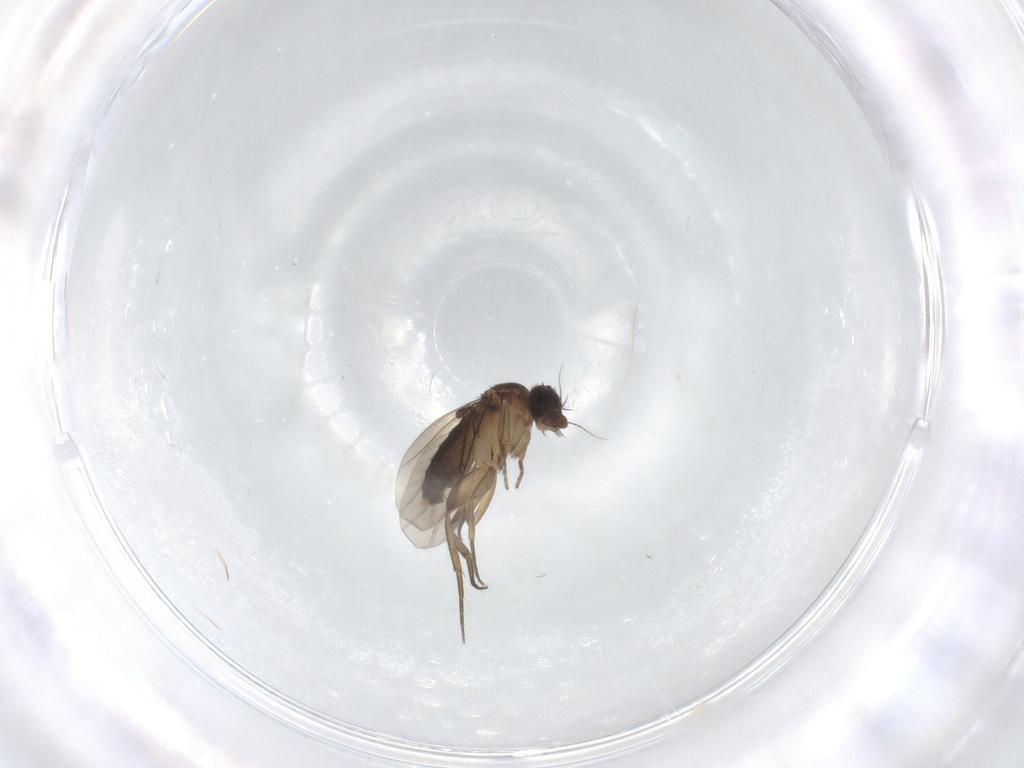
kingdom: Animalia
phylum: Arthropoda
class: Insecta
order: Diptera
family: Phoridae
